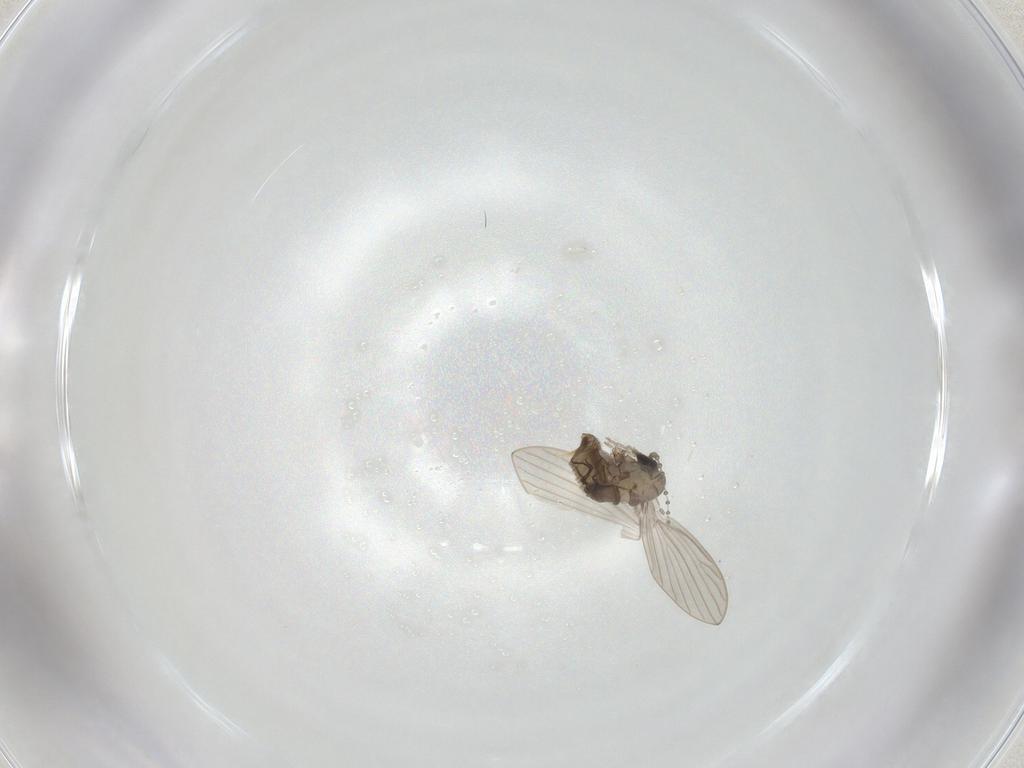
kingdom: Animalia
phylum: Arthropoda
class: Insecta
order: Diptera
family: Psychodidae
